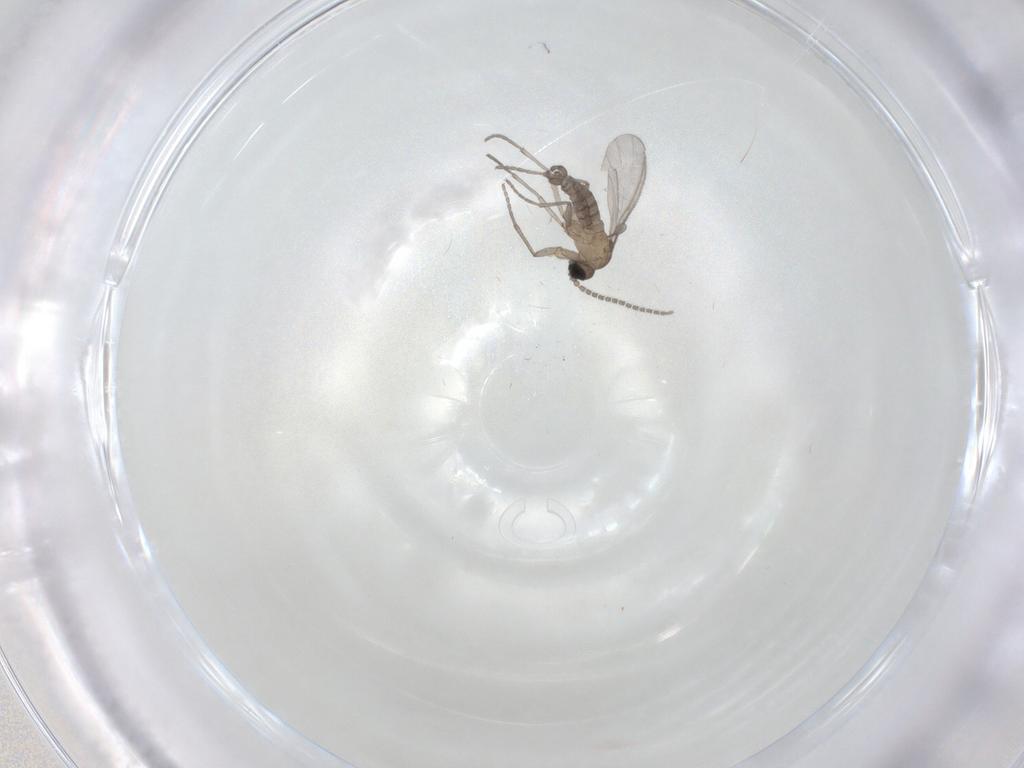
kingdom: Animalia
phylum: Arthropoda
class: Insecta
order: Diptera
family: Sciaridae
